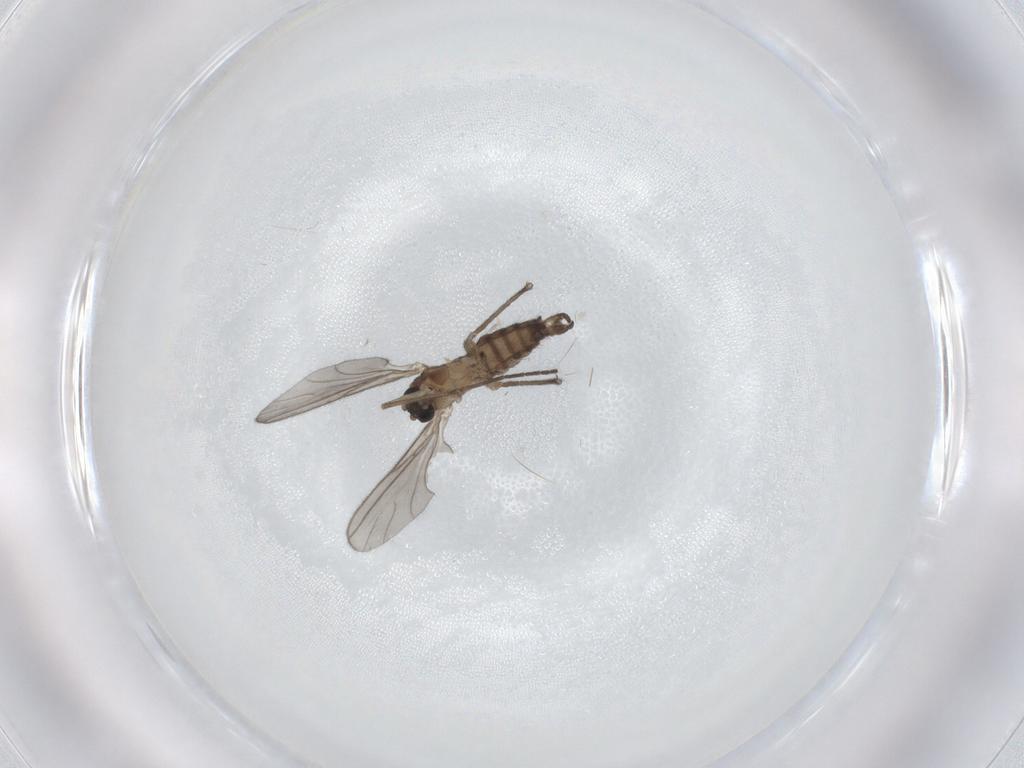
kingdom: Animalia
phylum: Arthropoda
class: Insecta
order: Diptera
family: Psychodidae
